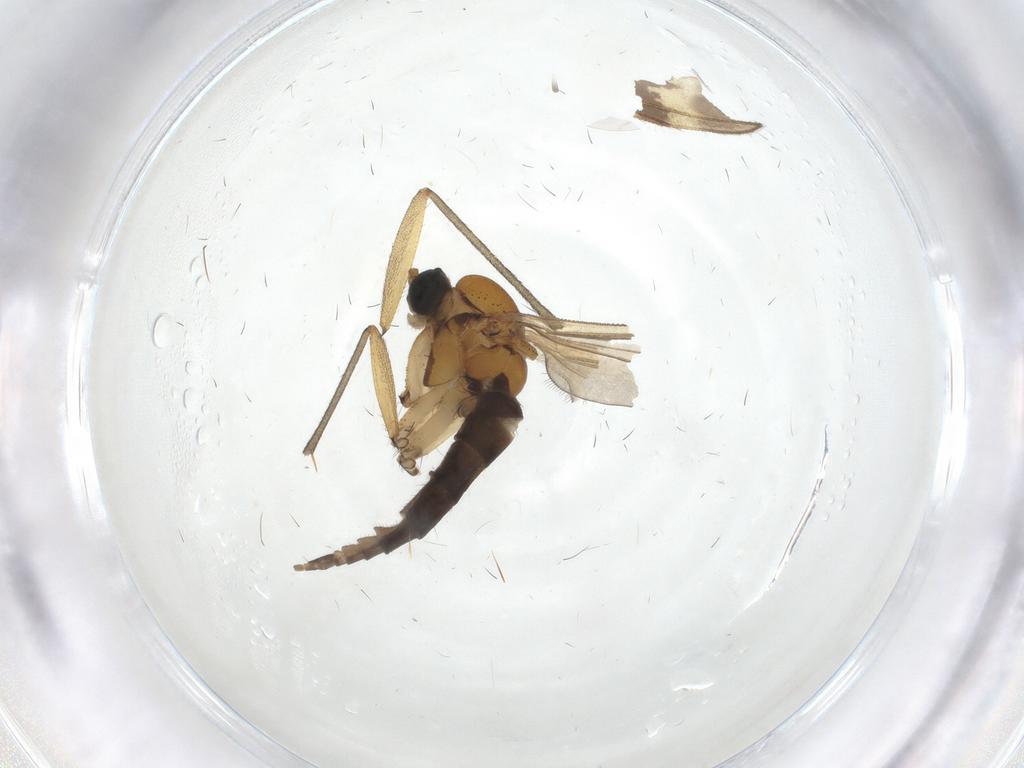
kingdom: Animalia
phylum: Arthropoda
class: Insecta
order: Diptera
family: Sciaridae
